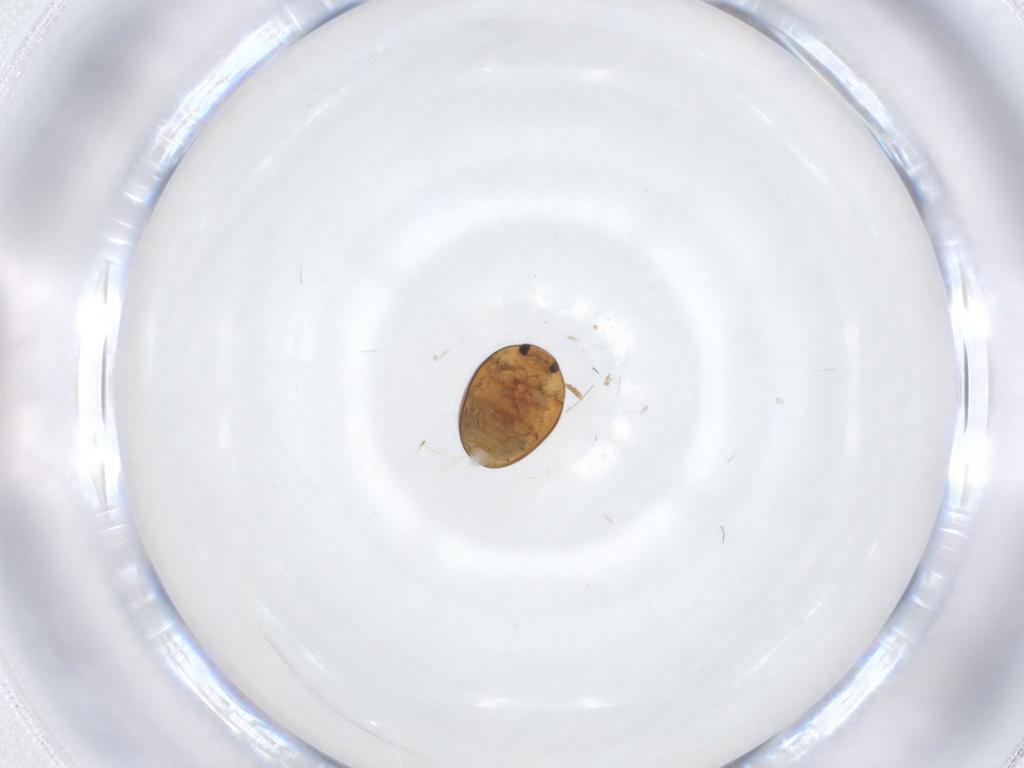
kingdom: Animalia
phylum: Arthropoda
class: Insecta
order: Coleoptera
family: Phalacridae
